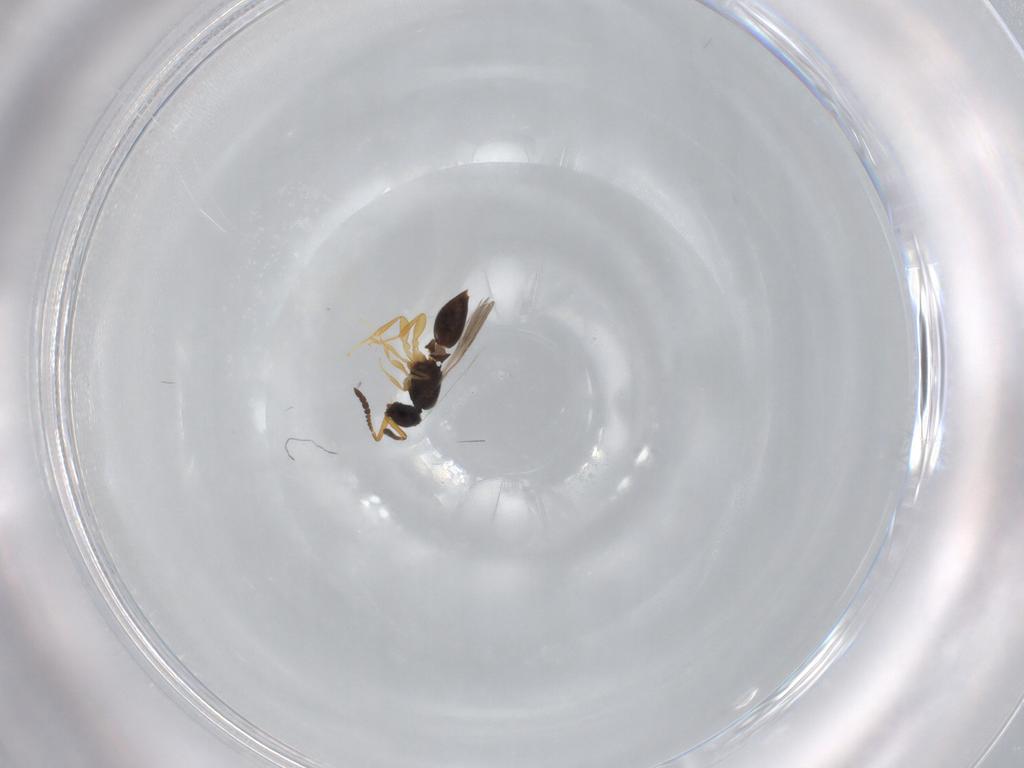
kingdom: Animalia
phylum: Arthropoda
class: Insecta
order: Hymenoptera
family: Ceraphronidae
